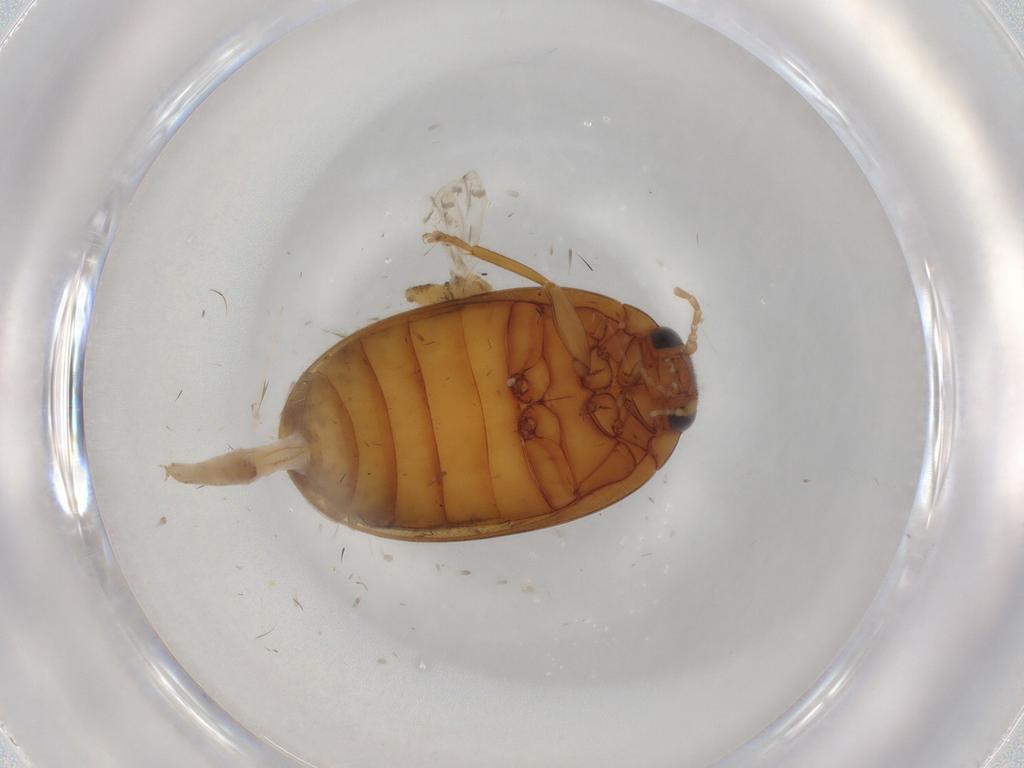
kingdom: Animalia
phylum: Arthropoda
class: Insecta
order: Coleoptera
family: Scirtidae
